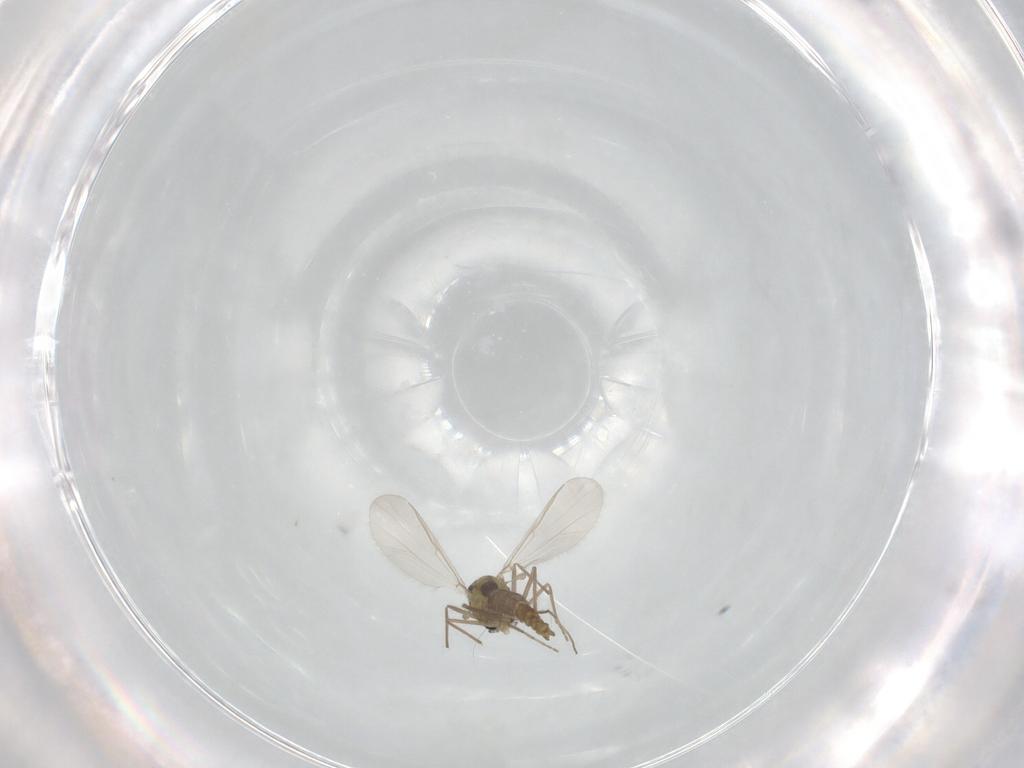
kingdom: Animalia
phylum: Arthropoda
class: Insecta
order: Diptera
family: Chironomidae
